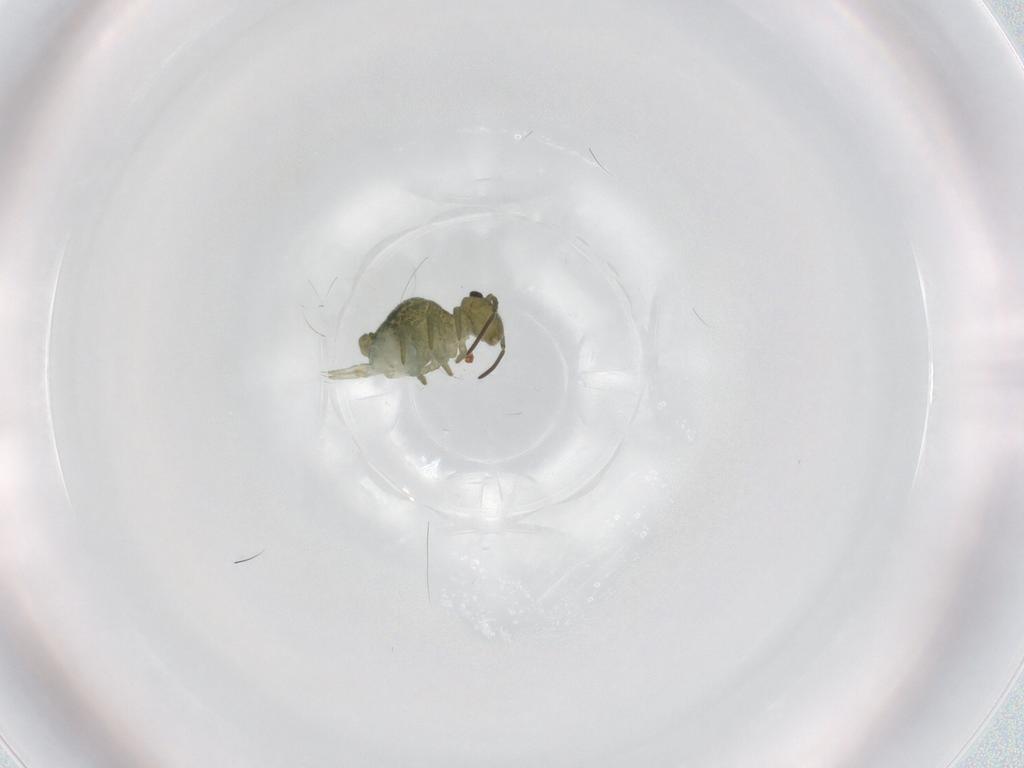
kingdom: Animalia
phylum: Arthropoda
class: Collembola
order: Symphypleona
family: Sminthuridae
